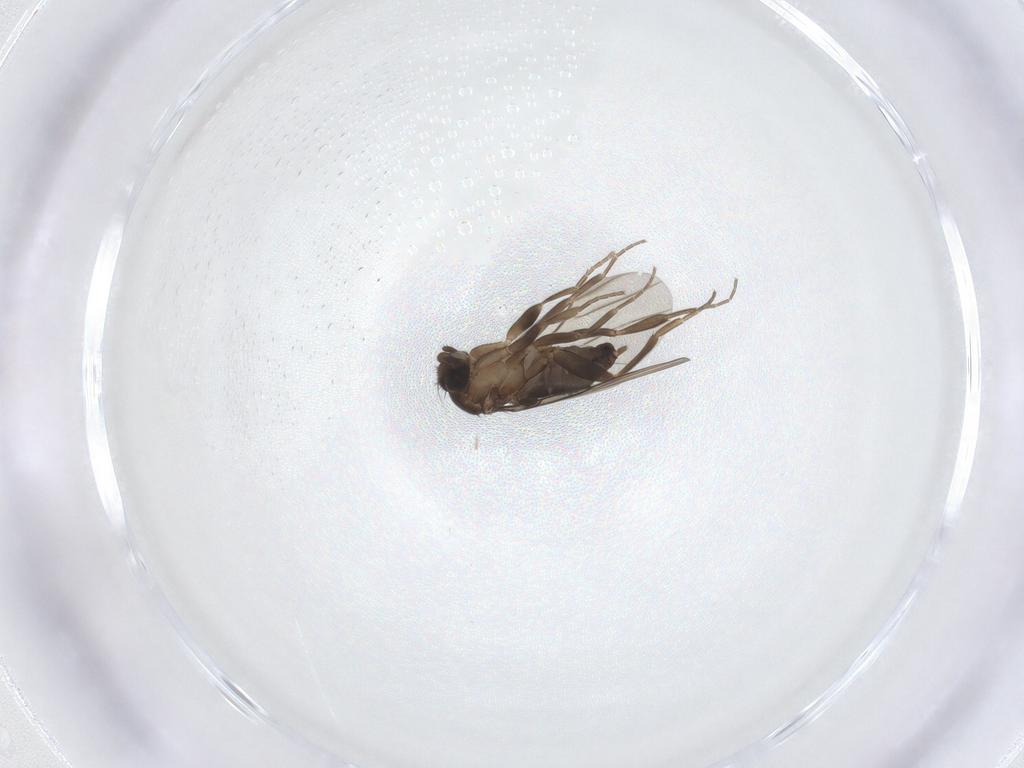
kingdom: Animalia
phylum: Arthropoda
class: Insecta
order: Diptera
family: Phoridae
